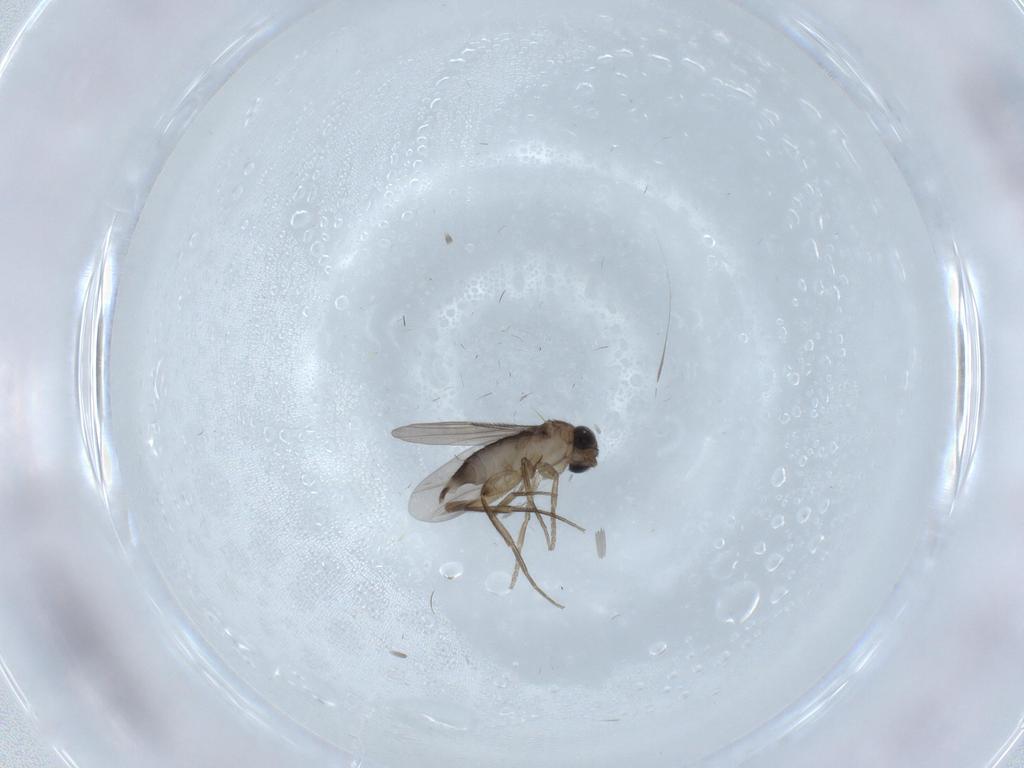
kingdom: Animalia
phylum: Arthropoda
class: Insecta
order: Diptera
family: Phoridae
